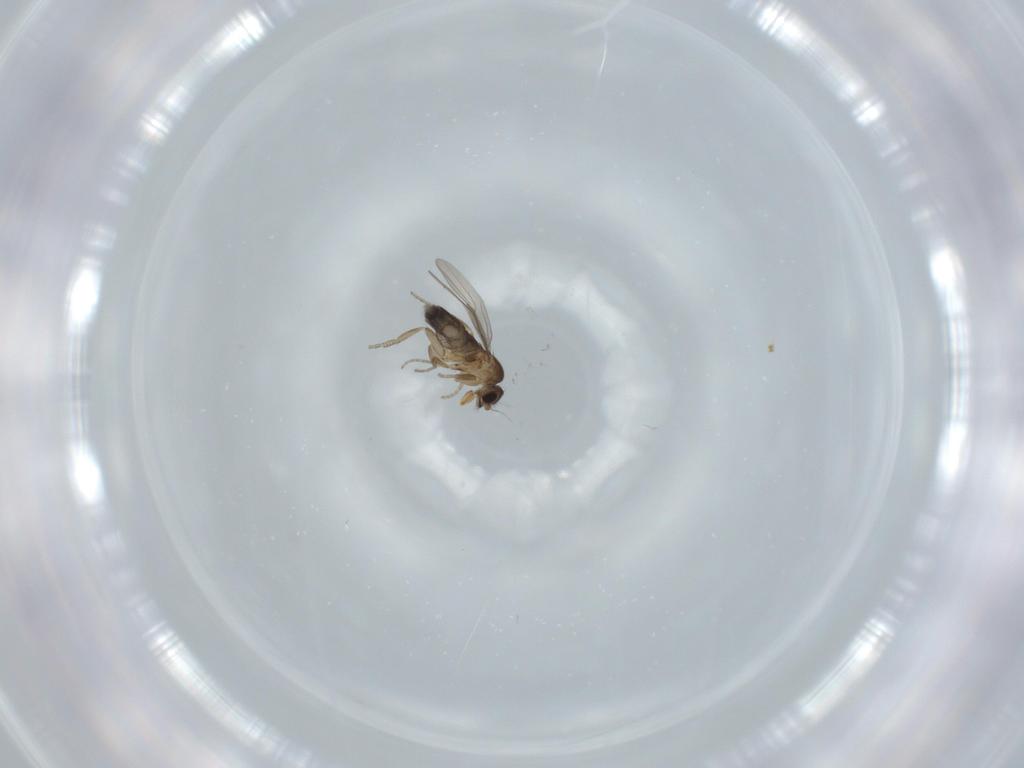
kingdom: Animalia
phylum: Arthropoda
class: Insecta
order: Diptera
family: Phoridae
